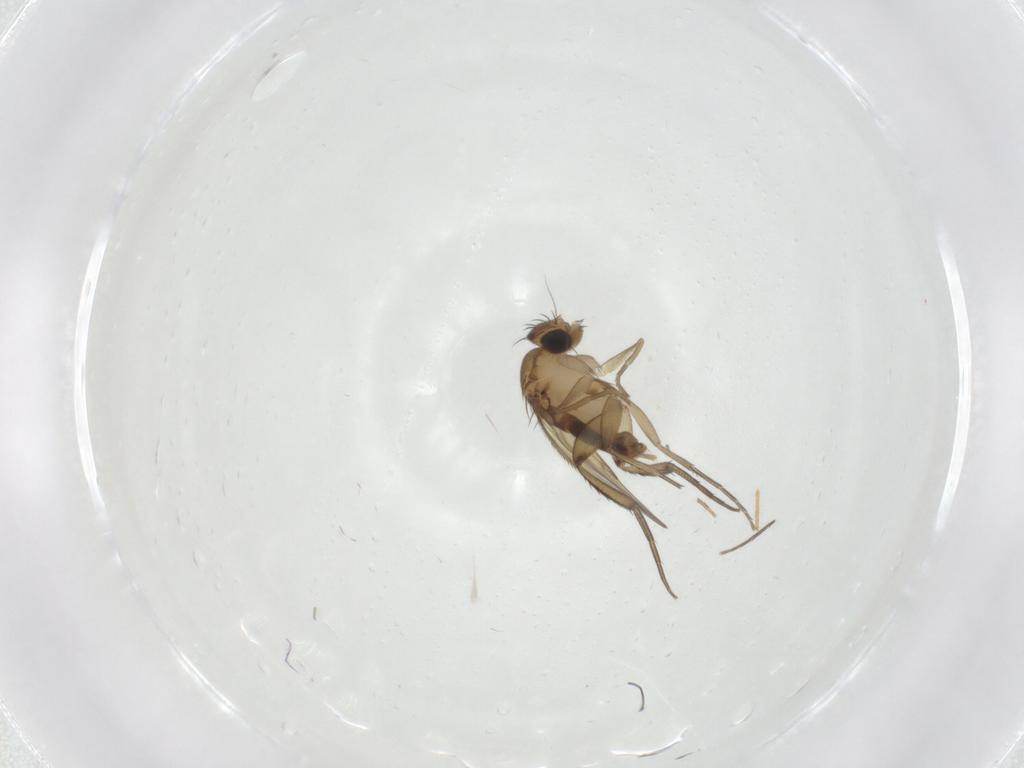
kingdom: Animalia
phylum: Arthropoda
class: Insecta
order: Diptera
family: Phoridae
